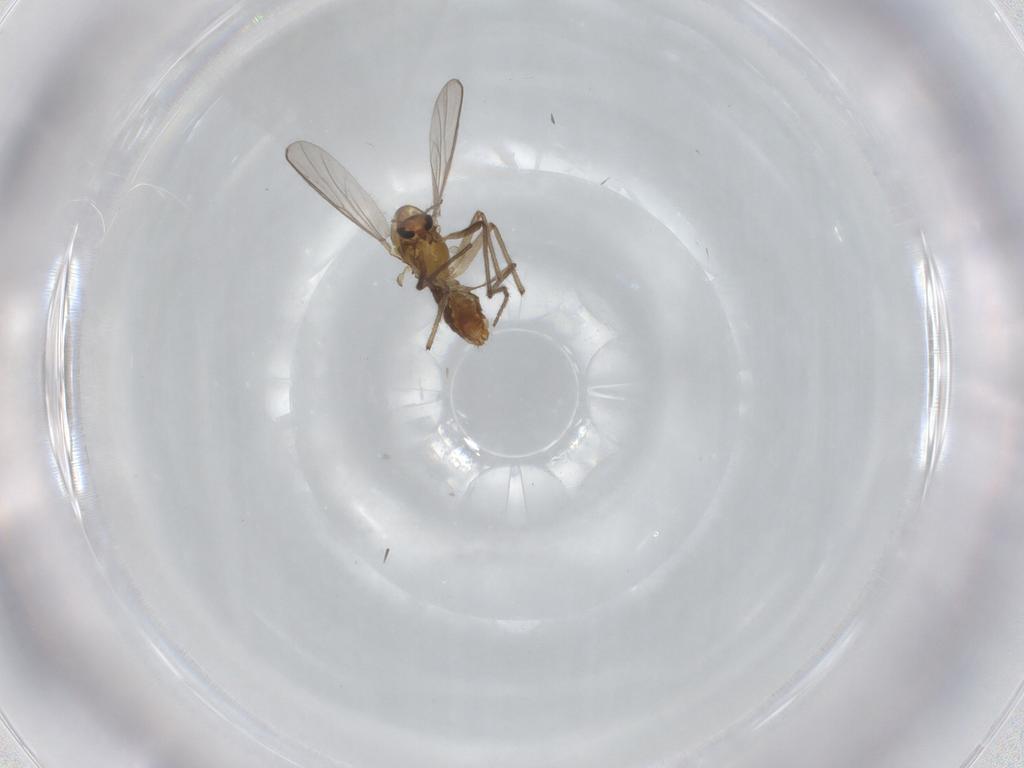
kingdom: Animalia
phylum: Arthropoda
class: Insecta
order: Diptera
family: Chironomidae
